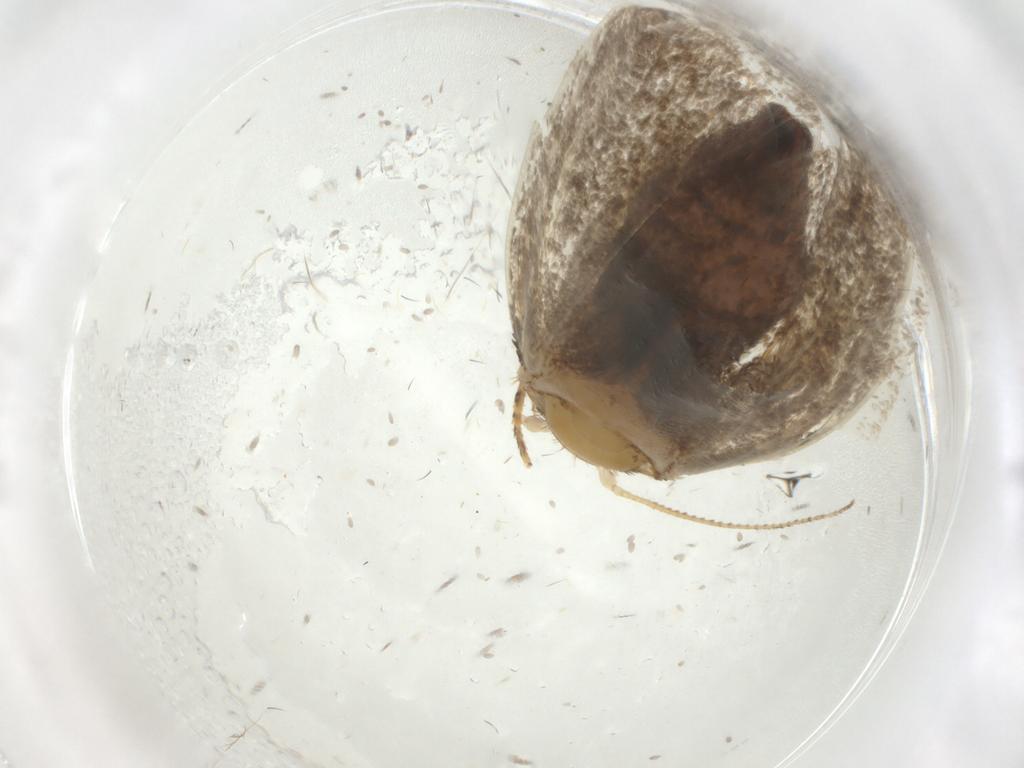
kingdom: Animalia
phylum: Arthropoda
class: Insecta
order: Lepidoptera
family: Tineidae
